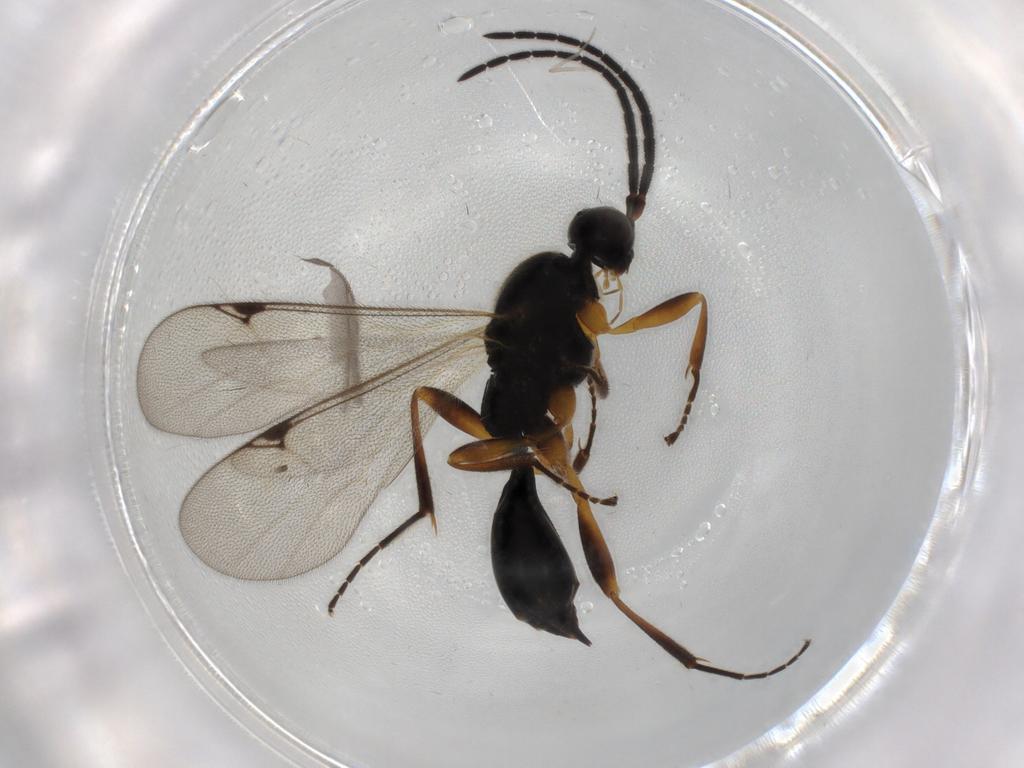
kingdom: Animalia
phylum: Arthropoda
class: Insecta
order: Hymenoptera
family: Proctotrupidae
